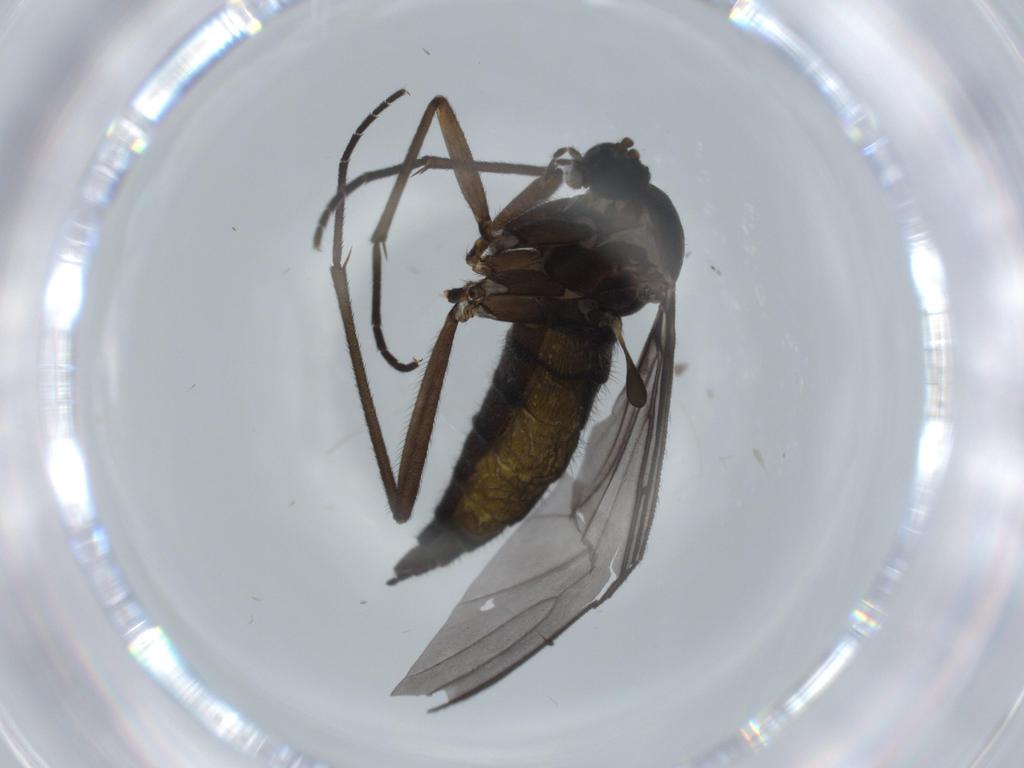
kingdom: Animalia
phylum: Arthropoda
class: Insecta
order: Diptera
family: Sciaridae
